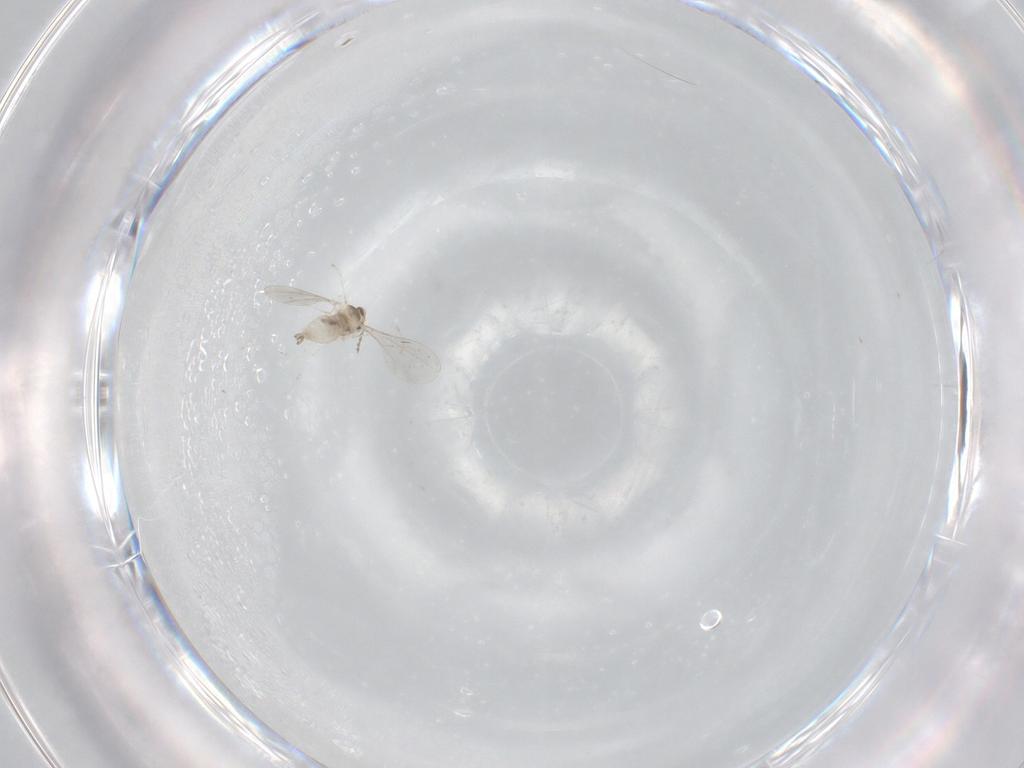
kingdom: Animalia
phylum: Arthropoda
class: Insecta
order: Diptera
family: Cecidomyiidae
